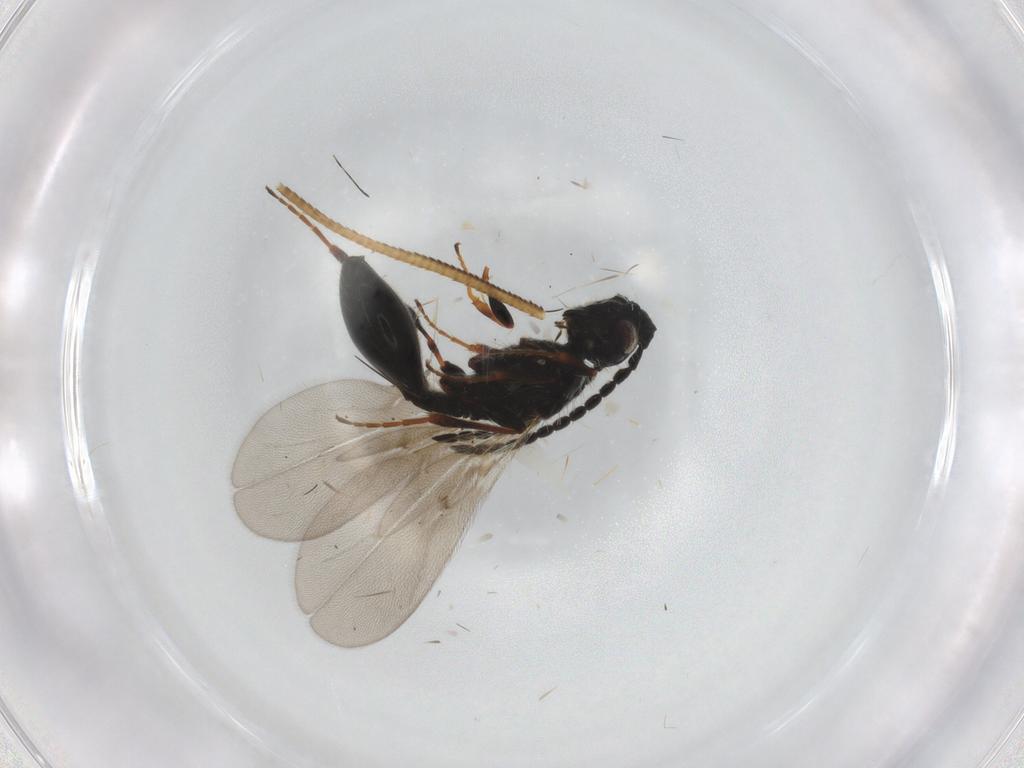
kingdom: Animalia
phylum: Arthropoda
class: Insecta
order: Hymenoptera
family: Diapriidae
